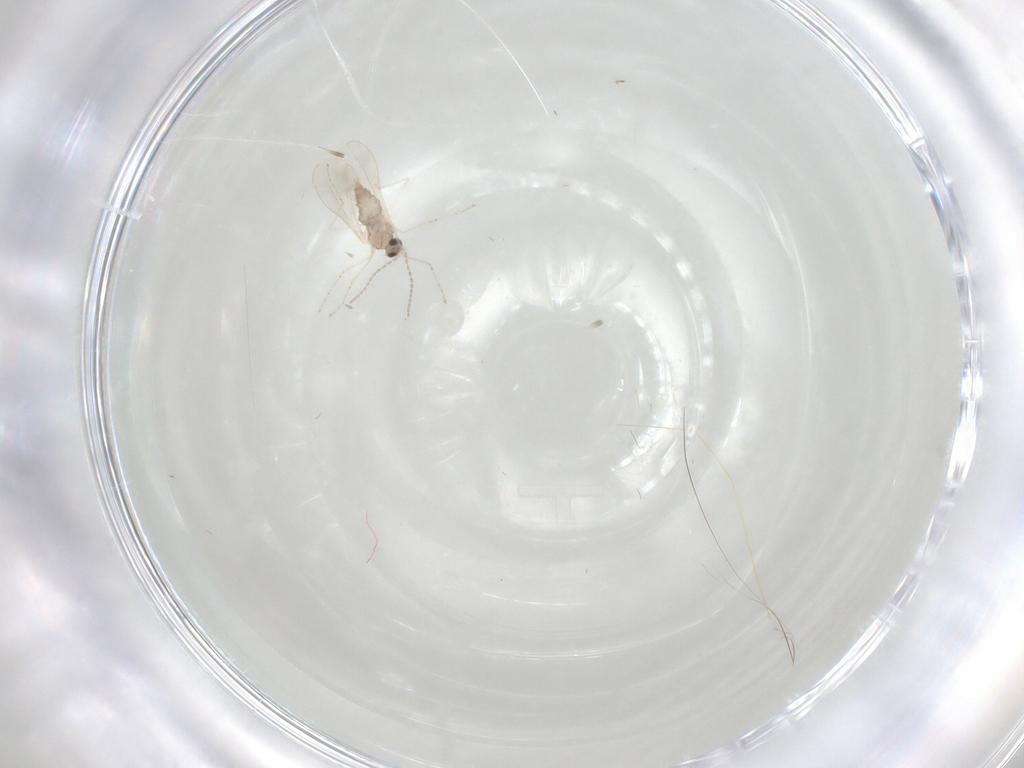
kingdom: Animalia
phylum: Arthropoda
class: Insecta
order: Diptera
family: Cecidomyiidae
